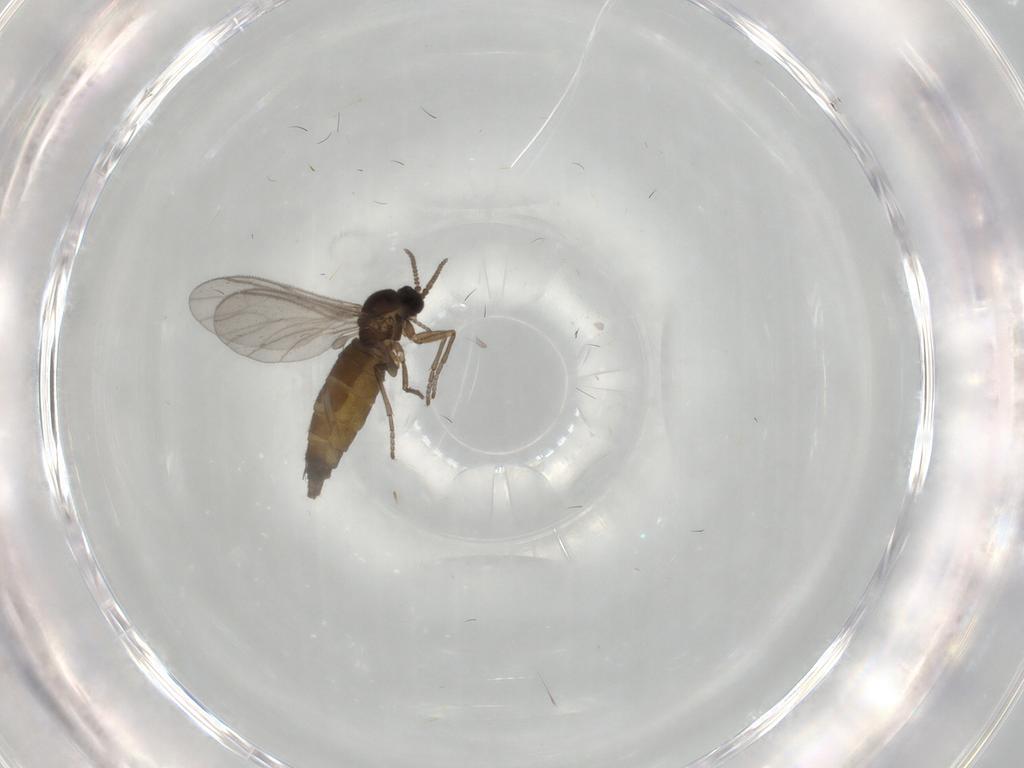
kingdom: Animalia
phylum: Arthropoda
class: Insecta
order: Diptera
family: Sciaridae
